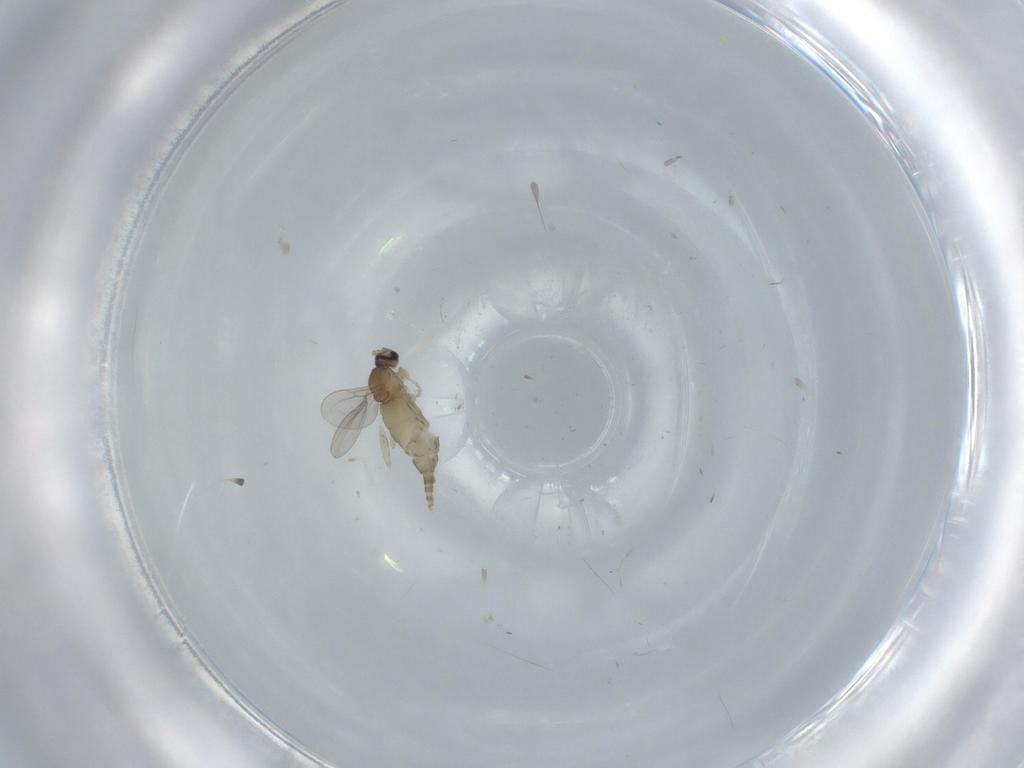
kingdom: Animalia
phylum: Arthropoda
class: Insecta
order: Diptera
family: Cecidomyiidae
